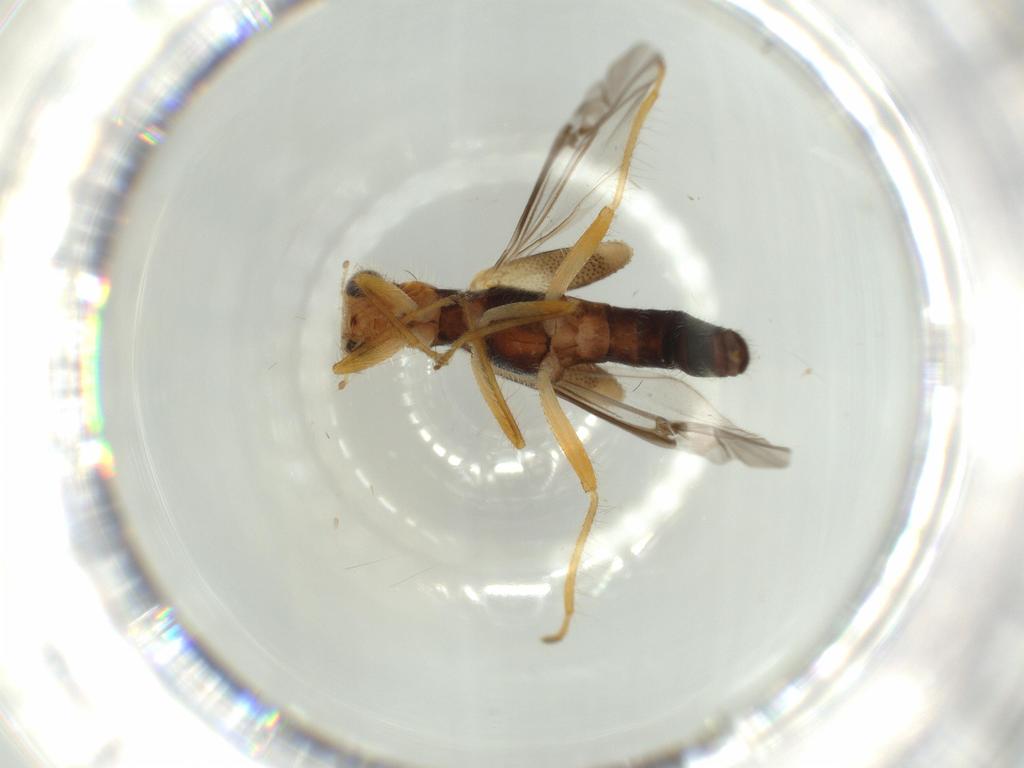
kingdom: Animalia
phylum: Arthropoda
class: Insecta
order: Coleoptera
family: Cleridae
